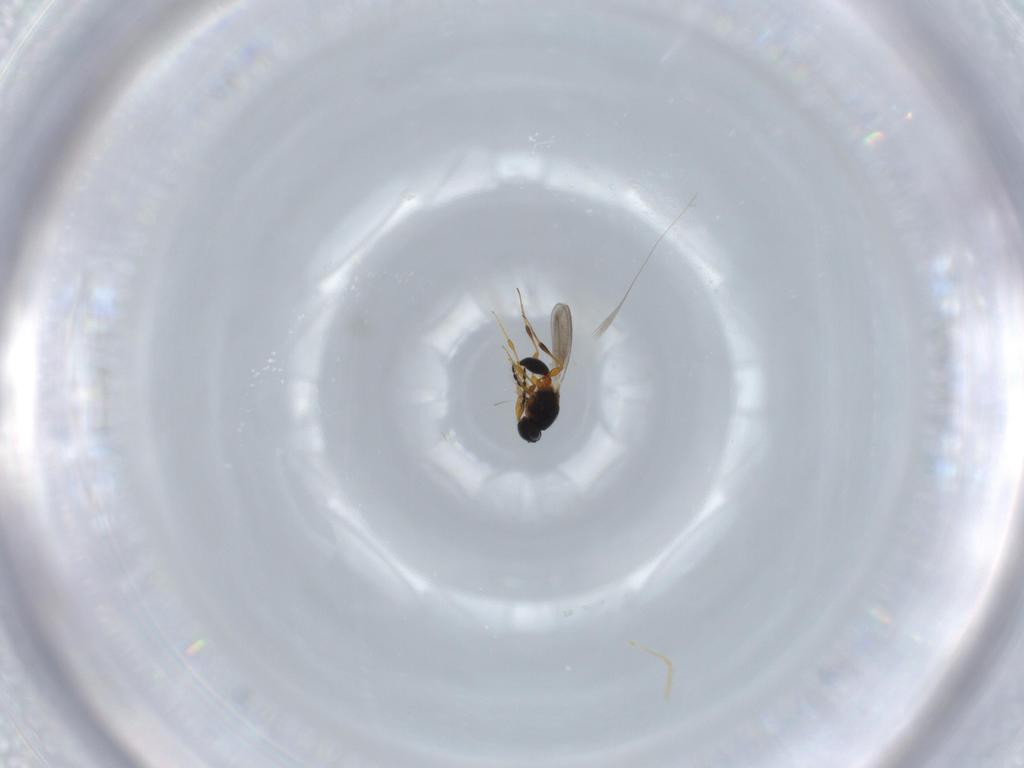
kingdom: Animalia
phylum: Arthropoda
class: Insecta
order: Hymenoptera
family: Platygastridae
